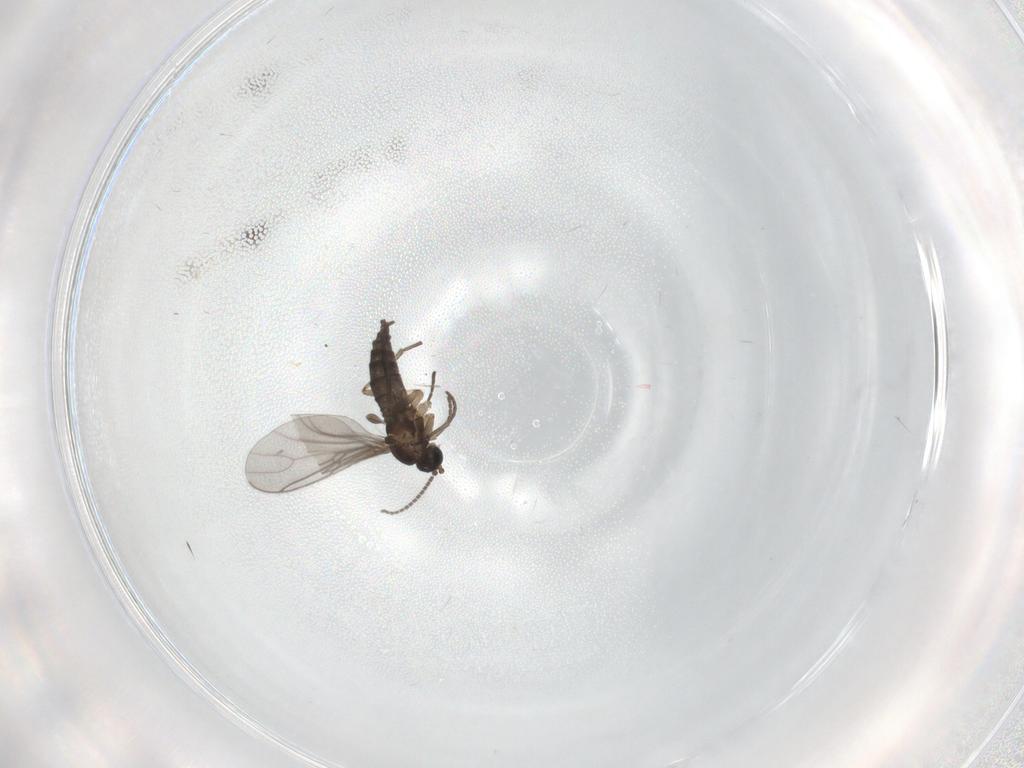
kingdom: Animalia
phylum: Arthropoda
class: Insecta
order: Diptera
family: Sciaridae
